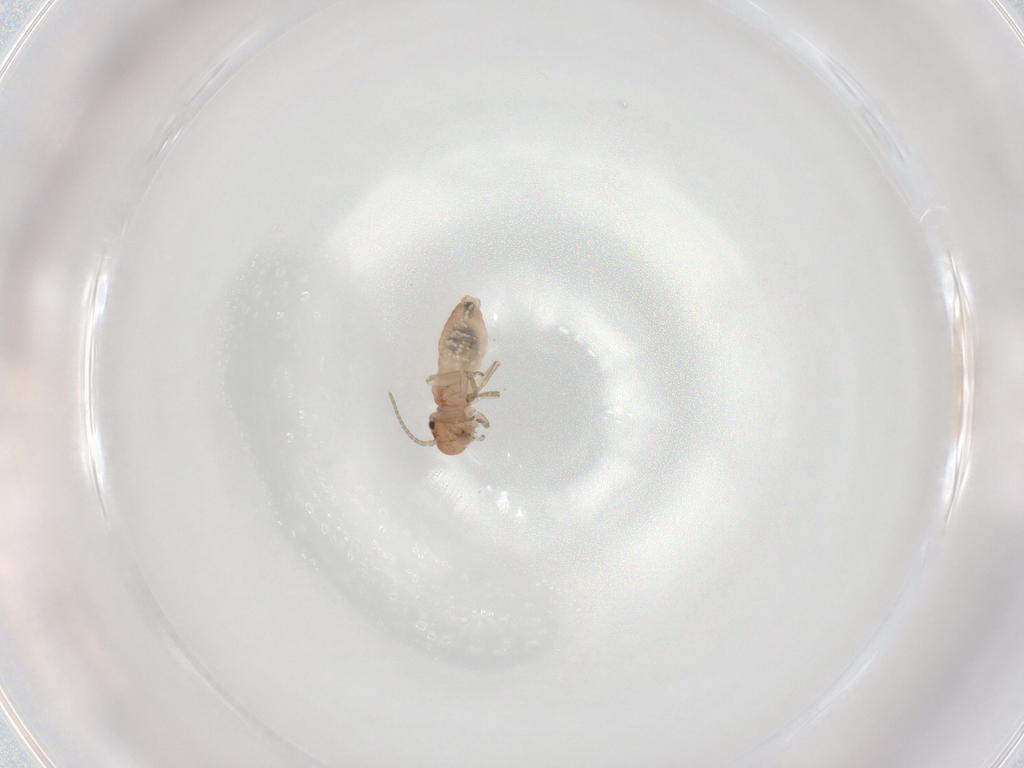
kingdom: Animalia
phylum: Arthropoda
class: Insecta
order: Psocodea
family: Caeciliusidae
